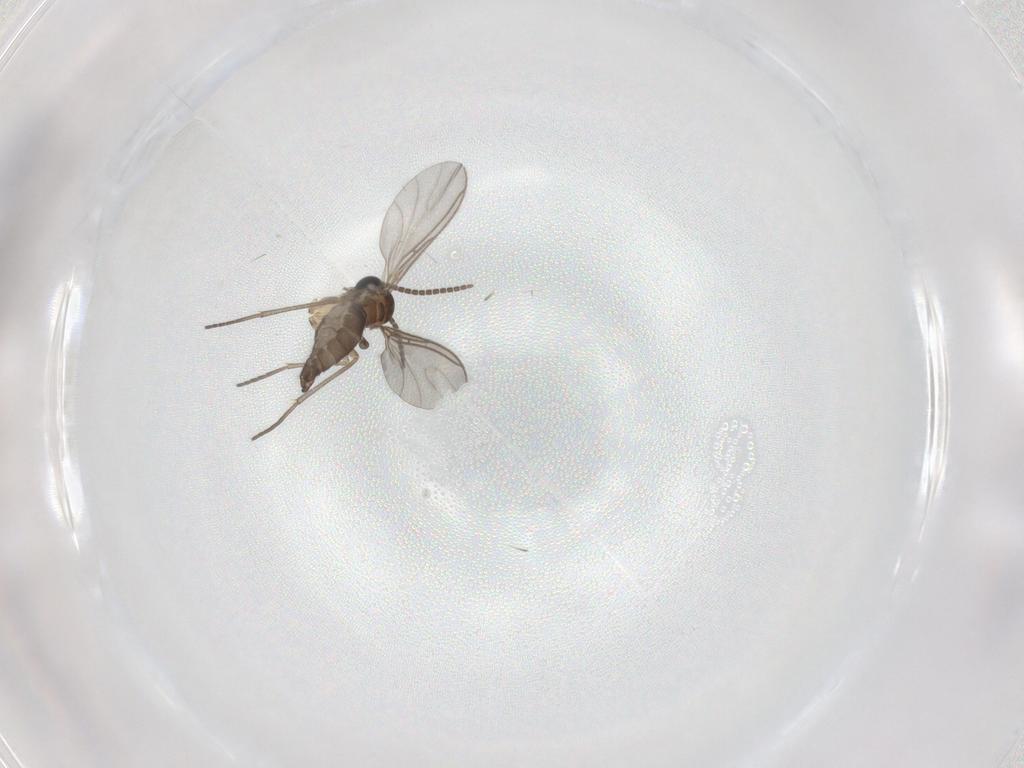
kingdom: Animalia
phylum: Arthropoda
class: Insecta
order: Diptera
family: Sciaridae
